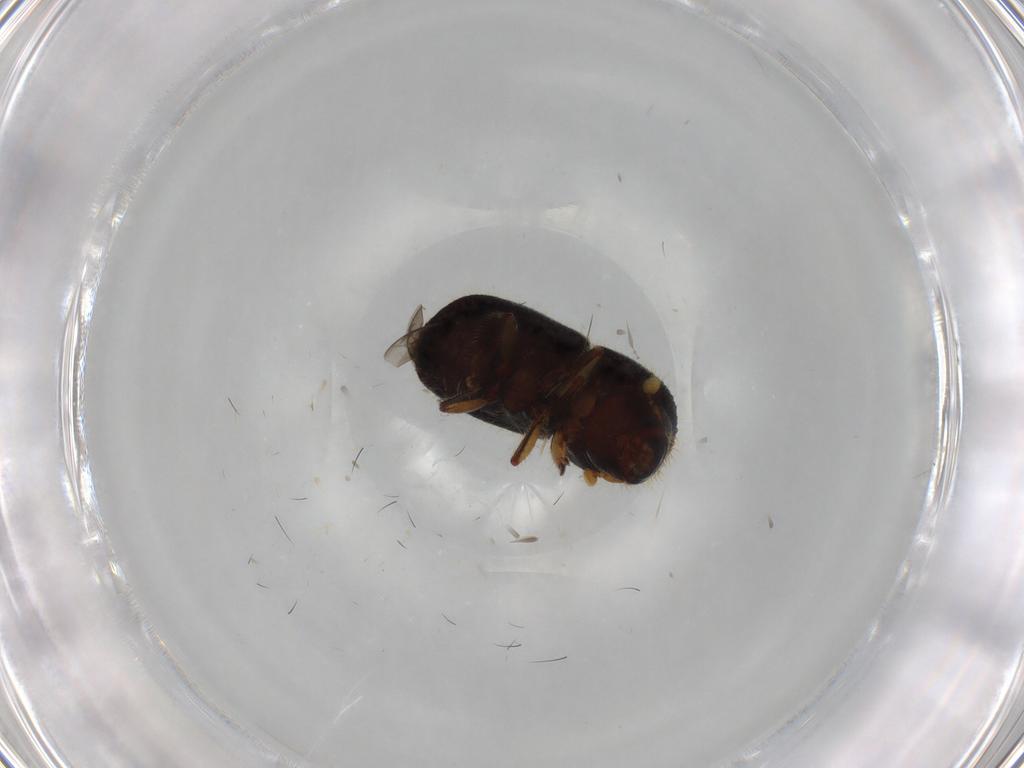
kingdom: Animalia
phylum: Arthropoda
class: Insecta
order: Coleoptera
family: Curculionidae
